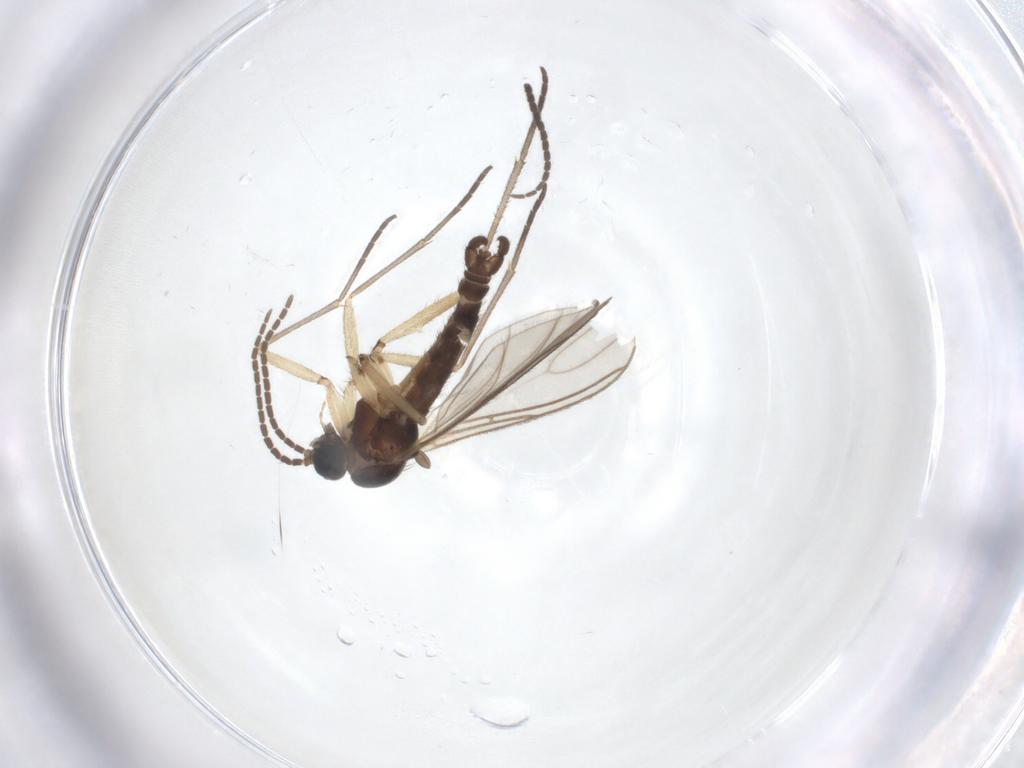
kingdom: Animalia
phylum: Arthropoda
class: Insecta
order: Diptera
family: Sciaridae
